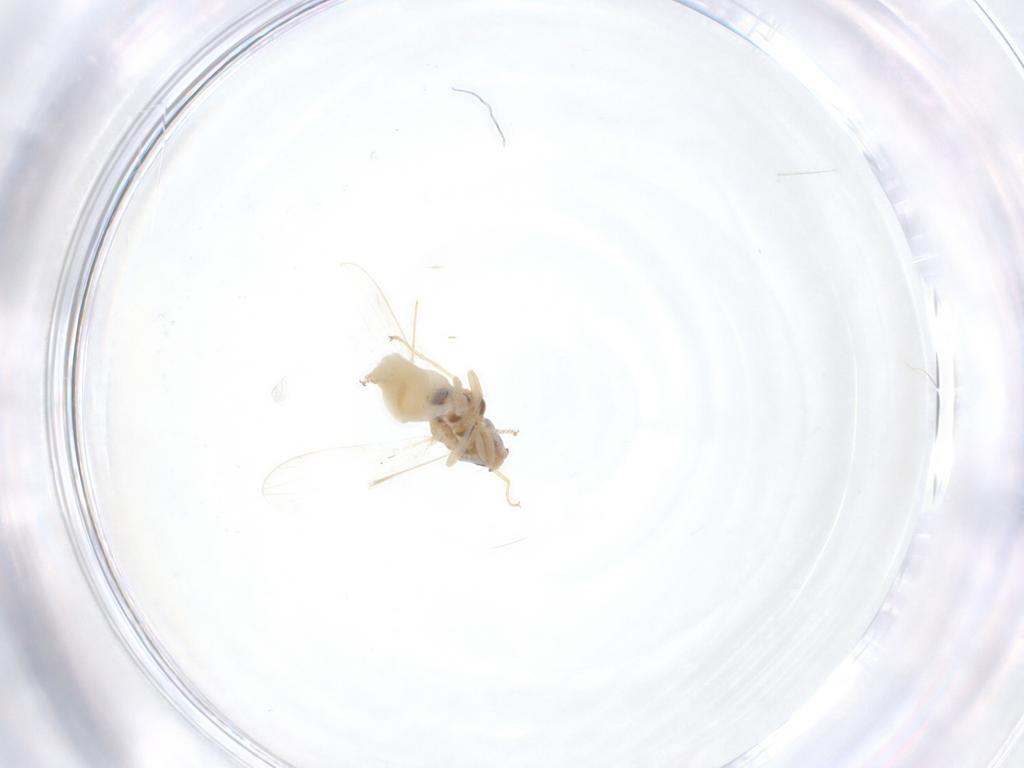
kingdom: Animalia
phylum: Arthropoda
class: Insecta
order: Diptera
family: Chloropidae
